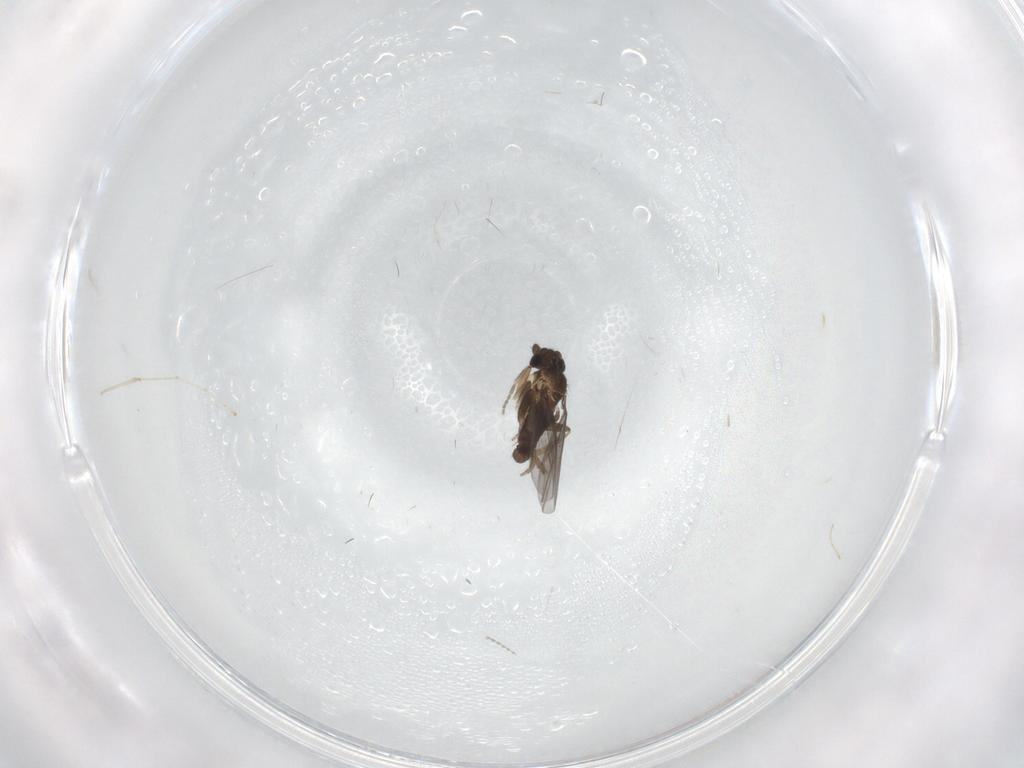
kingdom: Animalia
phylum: Arthropoda
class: Insecta
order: Diptera
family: Cecidomyiidae
